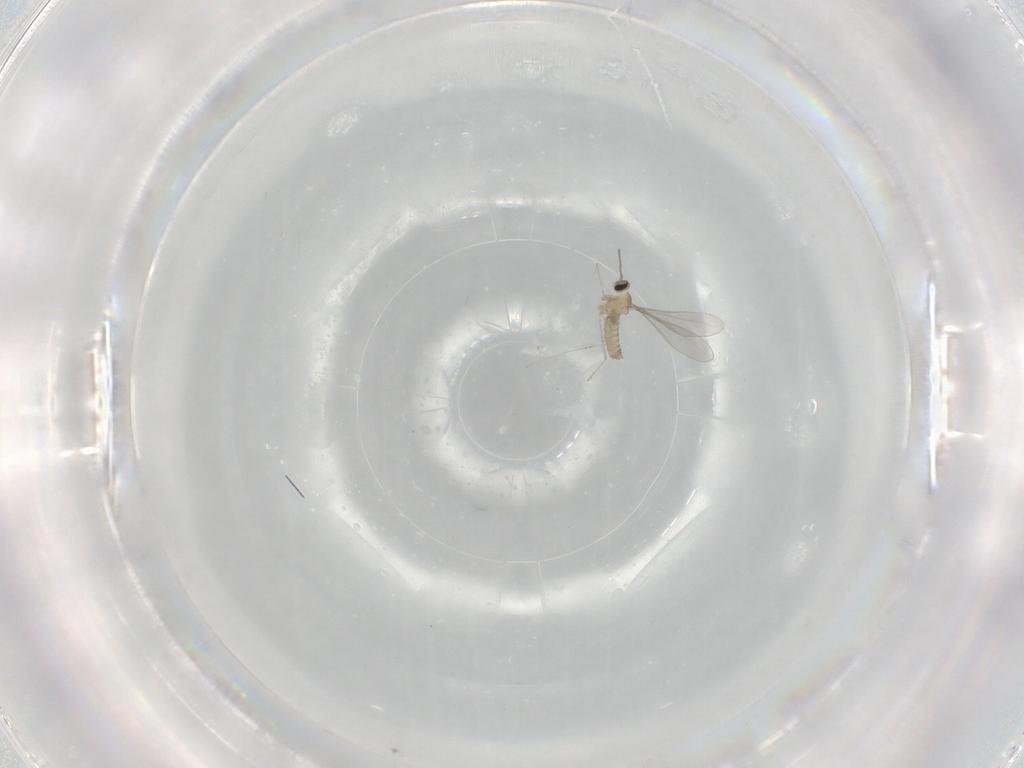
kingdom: Animalia
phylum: Arthropoda
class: Insecta
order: Diptera
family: Cecidomyiidae
